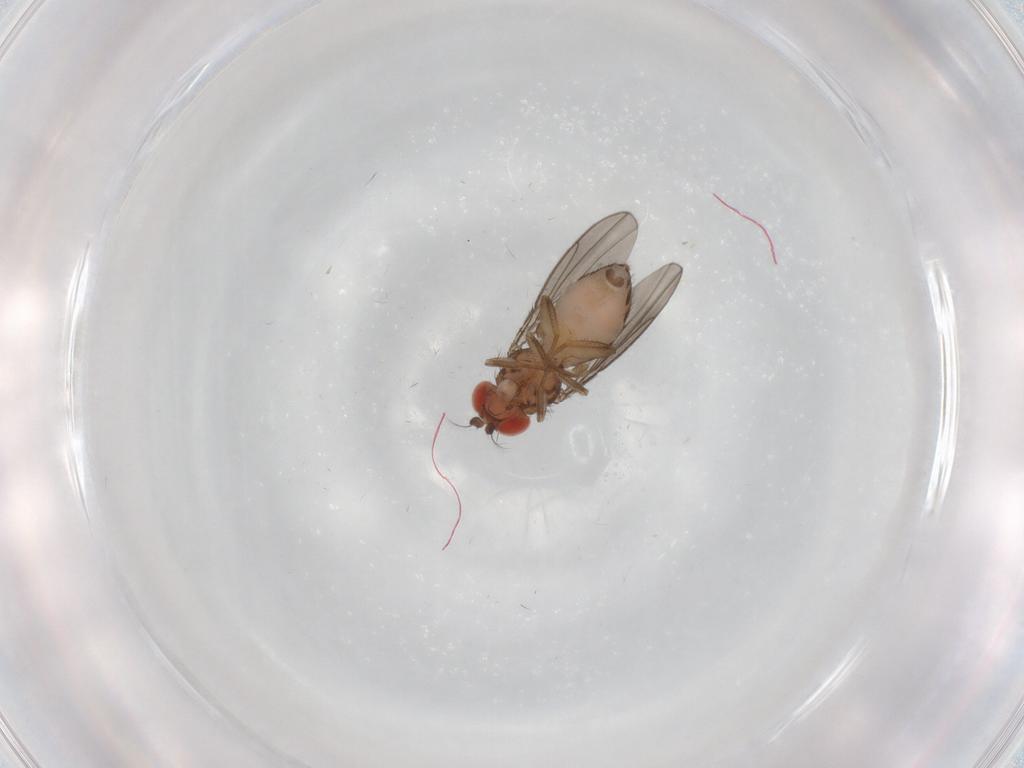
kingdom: Animalia
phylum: Arthropoda
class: Insecta
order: Diptera
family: Drosophilidae
